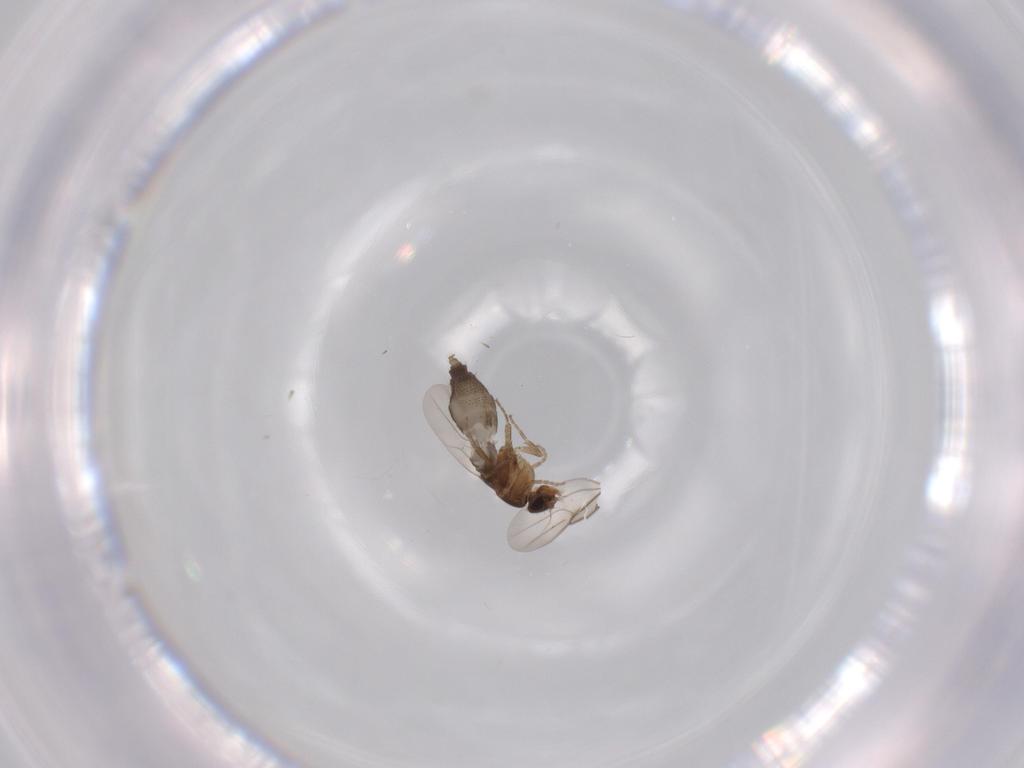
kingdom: Animalia
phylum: Arthropoda
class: Insecta
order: Diptera
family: Phoridae
